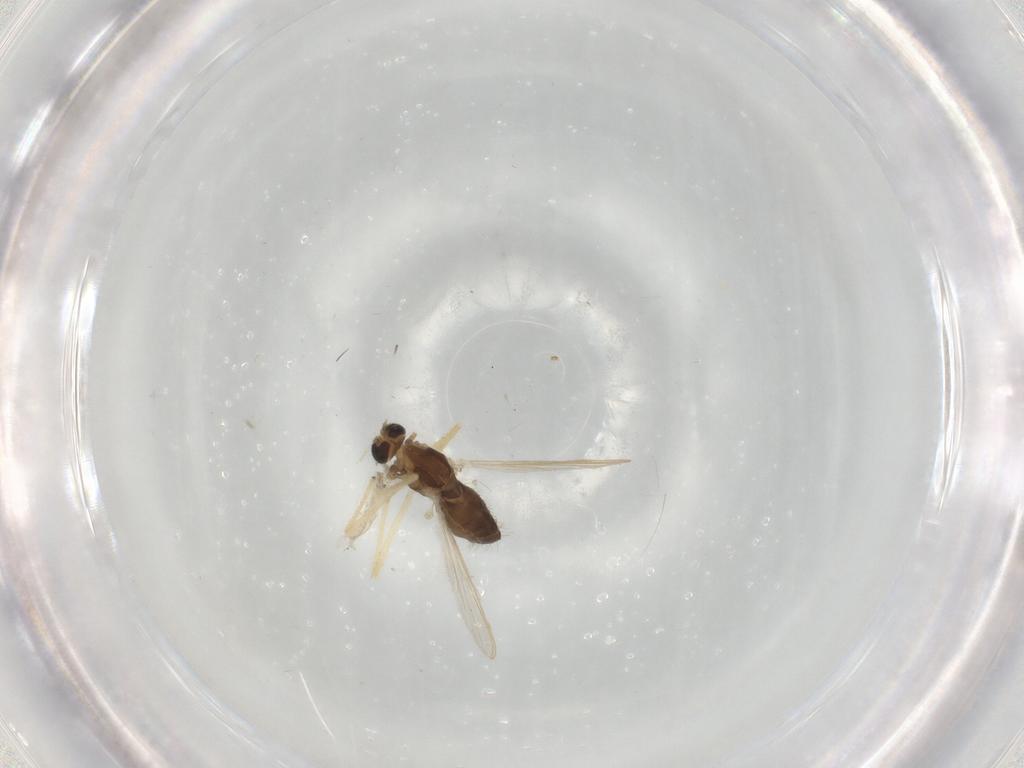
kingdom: Animalia
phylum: Arthropoda
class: Insecta
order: Diptera
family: Chironomidae
